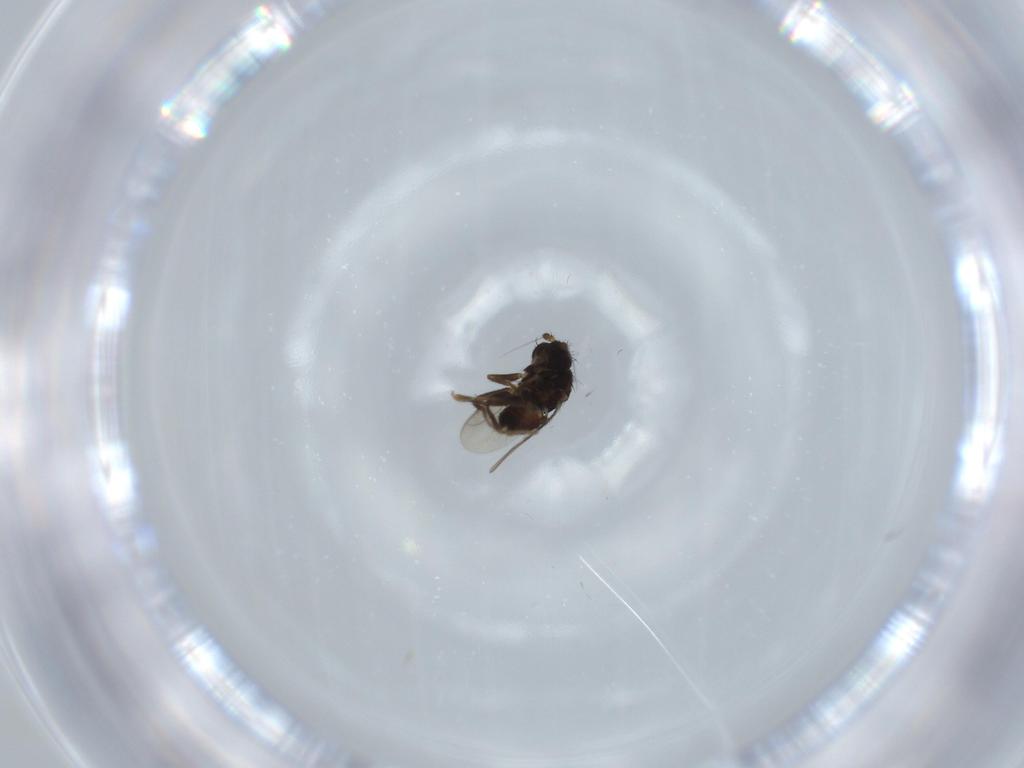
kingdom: Animalia
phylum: Arthropoda
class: Insecta
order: Diptera
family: Sphaeroceridae
